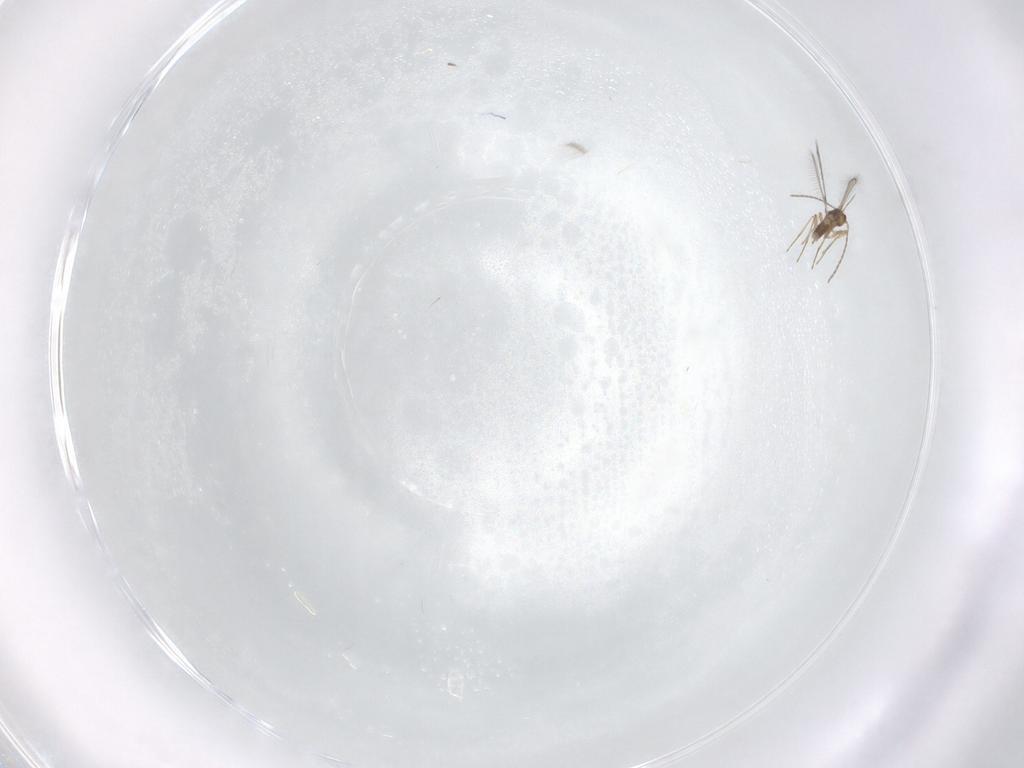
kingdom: Animalia
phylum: Arthropoda
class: Insecta
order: Hymenoptera
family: Mymaridae
